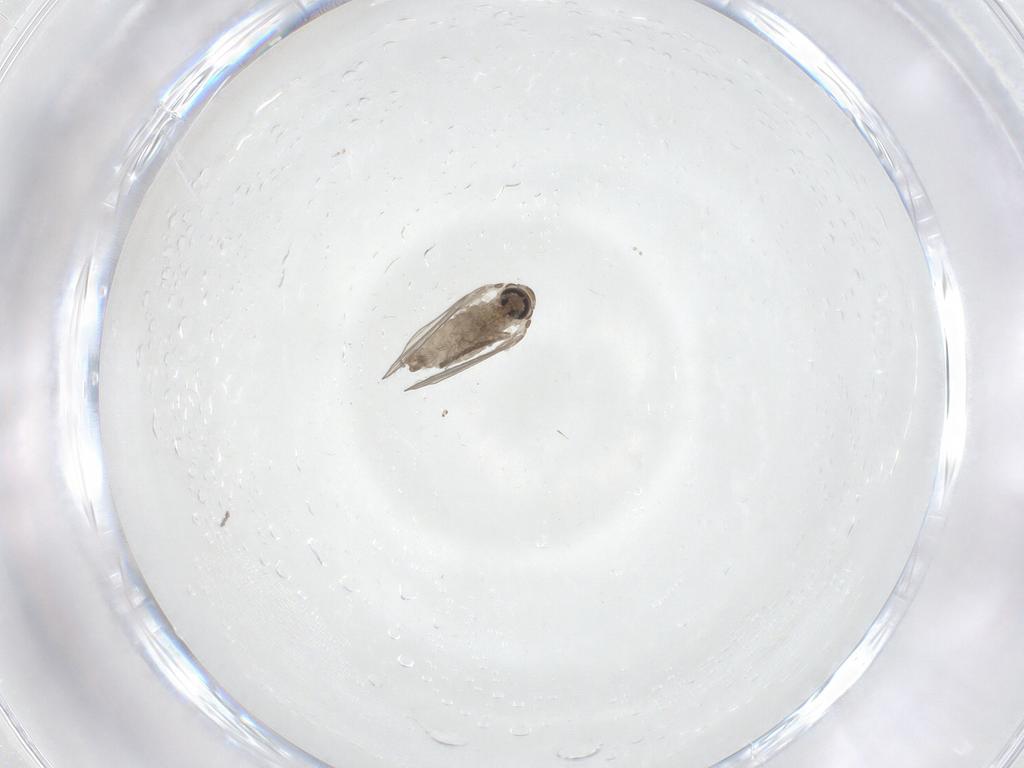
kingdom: Animalia
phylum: Arthropoda
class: Insecta
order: Diptera
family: Psychodidae
